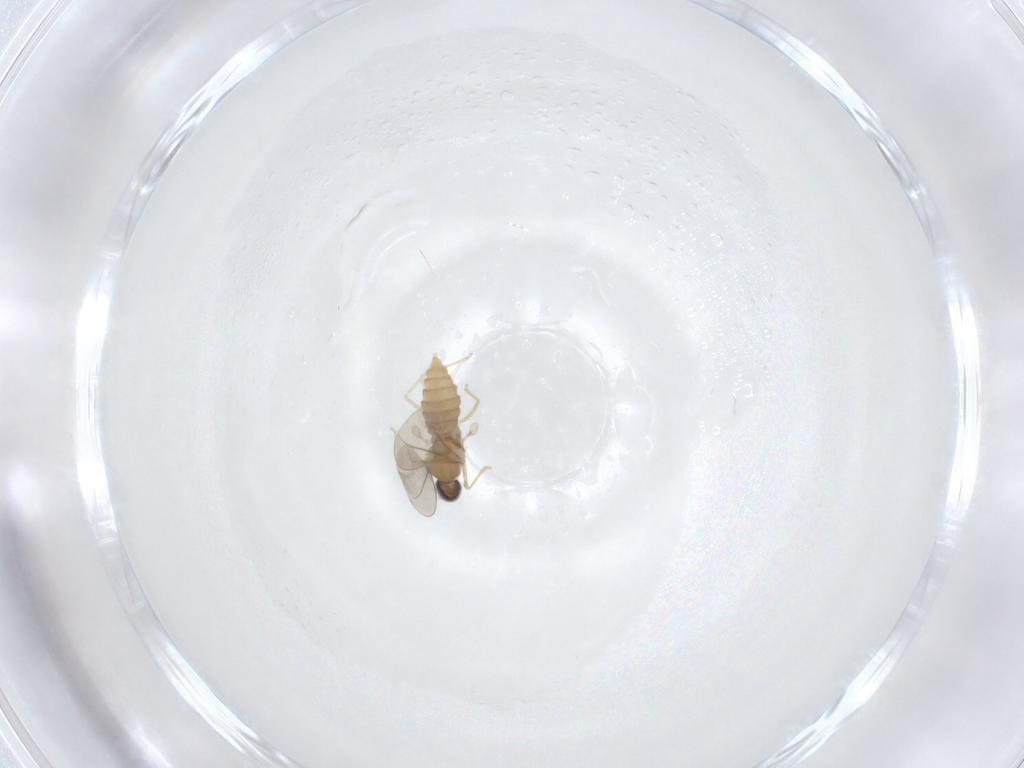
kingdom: Animalia
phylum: Arthropoda
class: Insecta
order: Diptera
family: Cecidomyiidae
